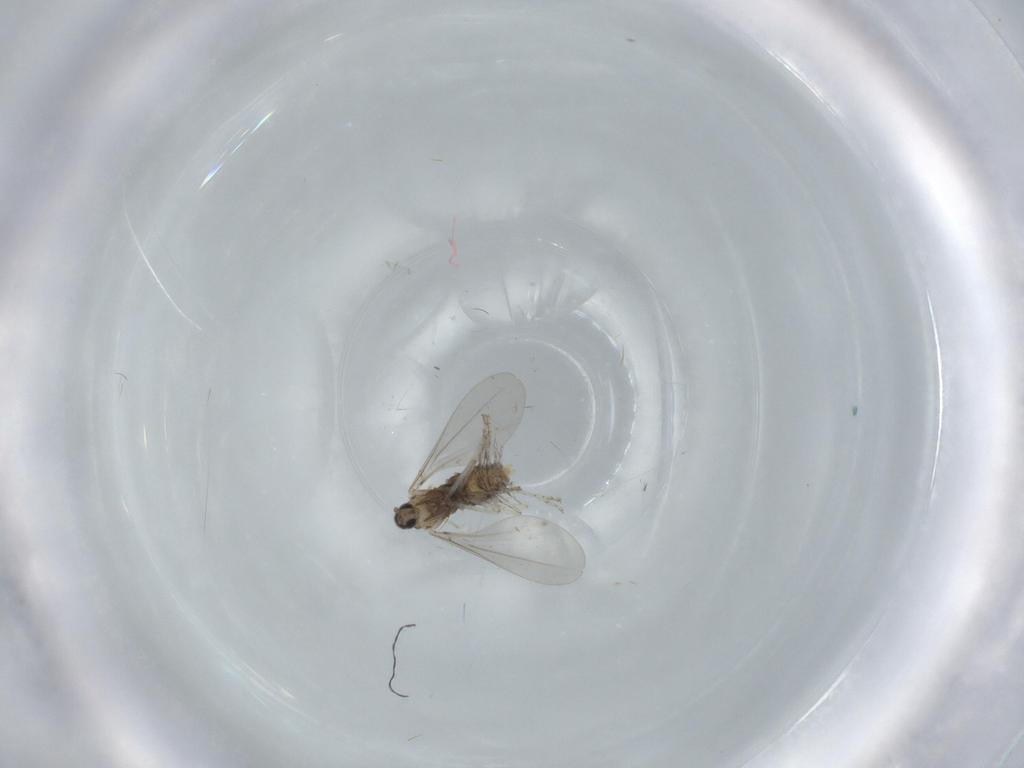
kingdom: Animalia
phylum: Arthropoda
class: Insecta
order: Diptera
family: Cecidomyiidae
